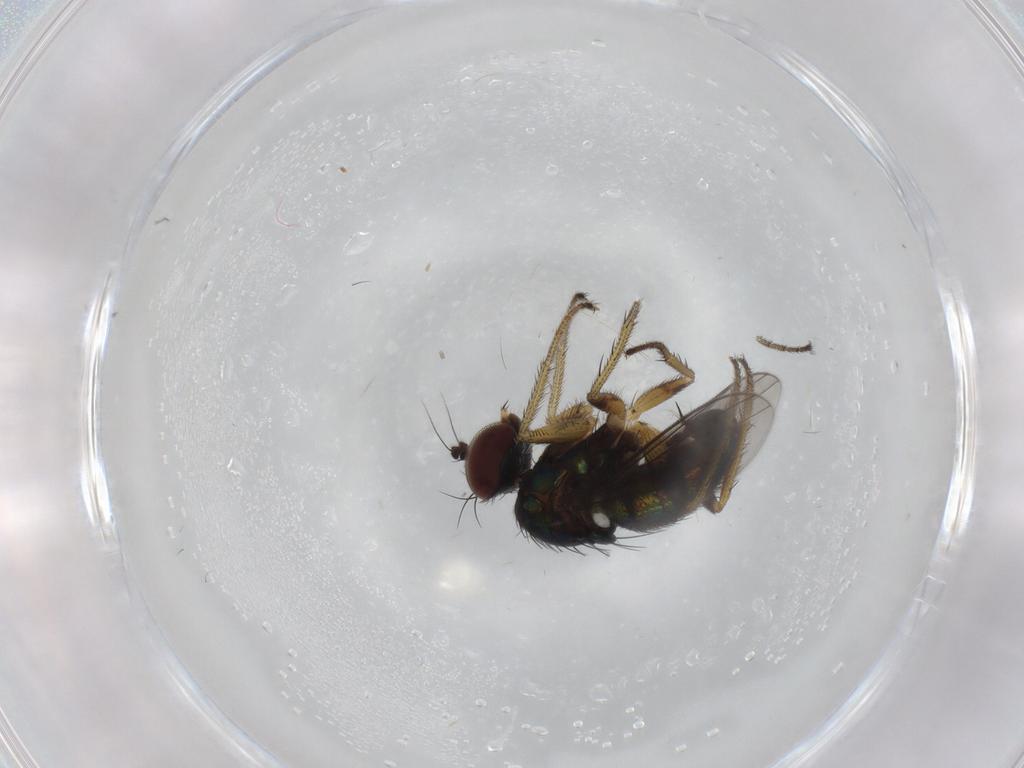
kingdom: Animalia
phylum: Arthropoda
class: Insecta
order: Diptera
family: Dolichopodidae
